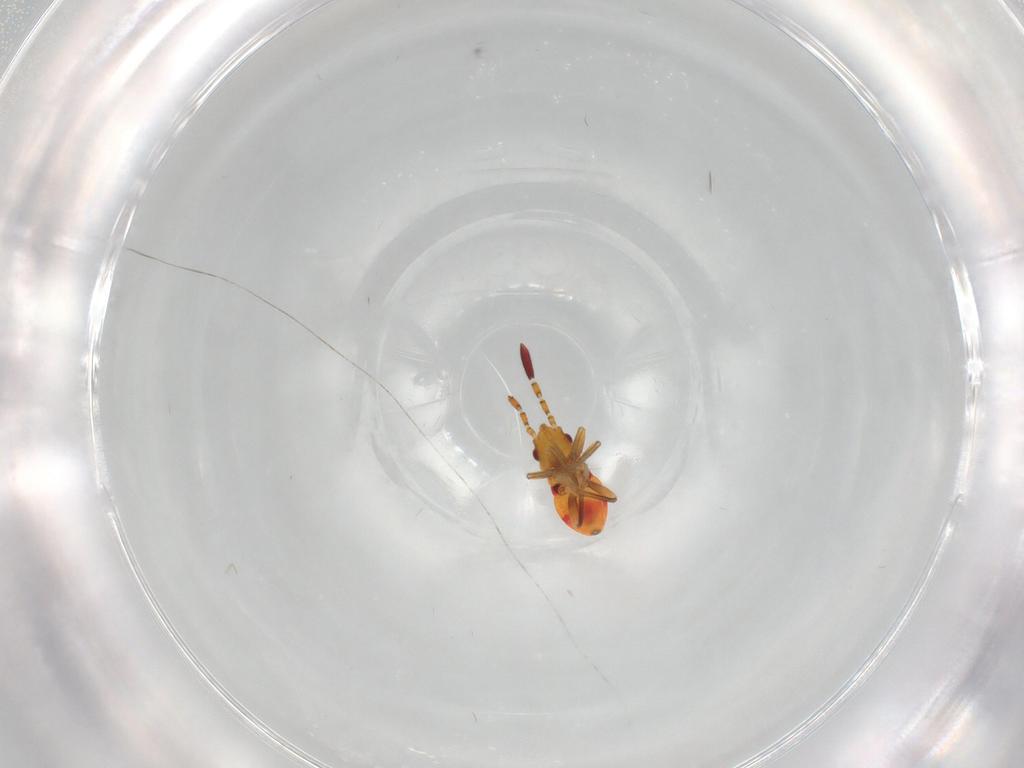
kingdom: Animalia
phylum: Arthropoda
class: Insecta
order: Hemiptera
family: Rhyparochromidae
